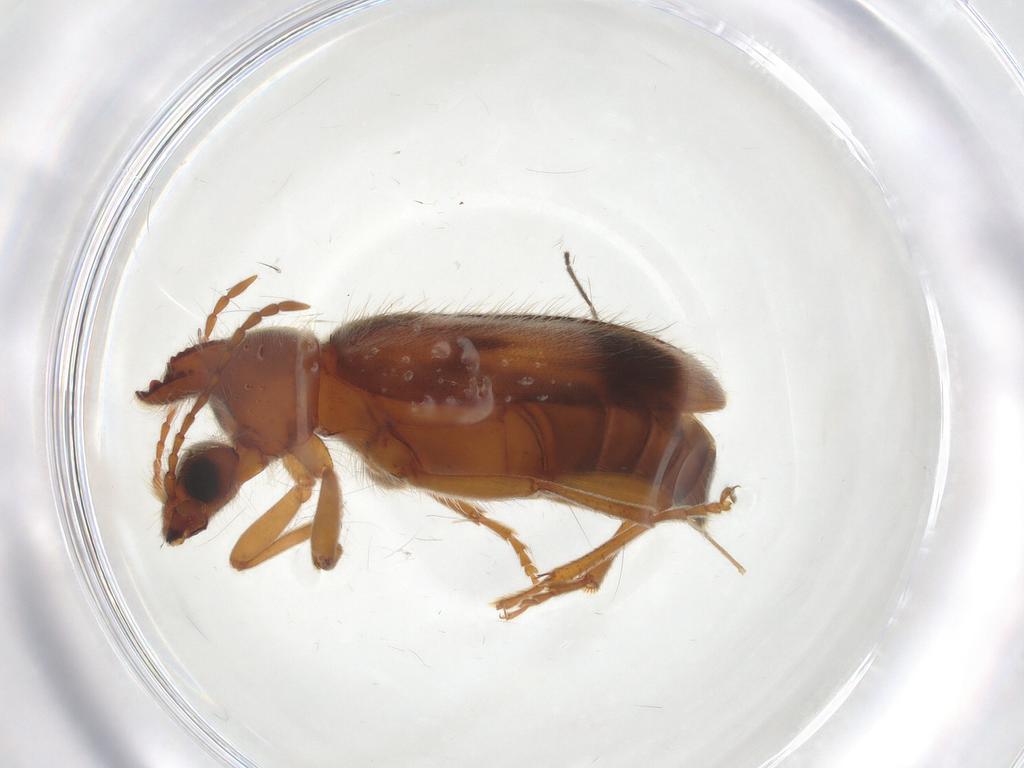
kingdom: Animalia
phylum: Arthropoda
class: Insecta
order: Coleoptera
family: Anthicidae
